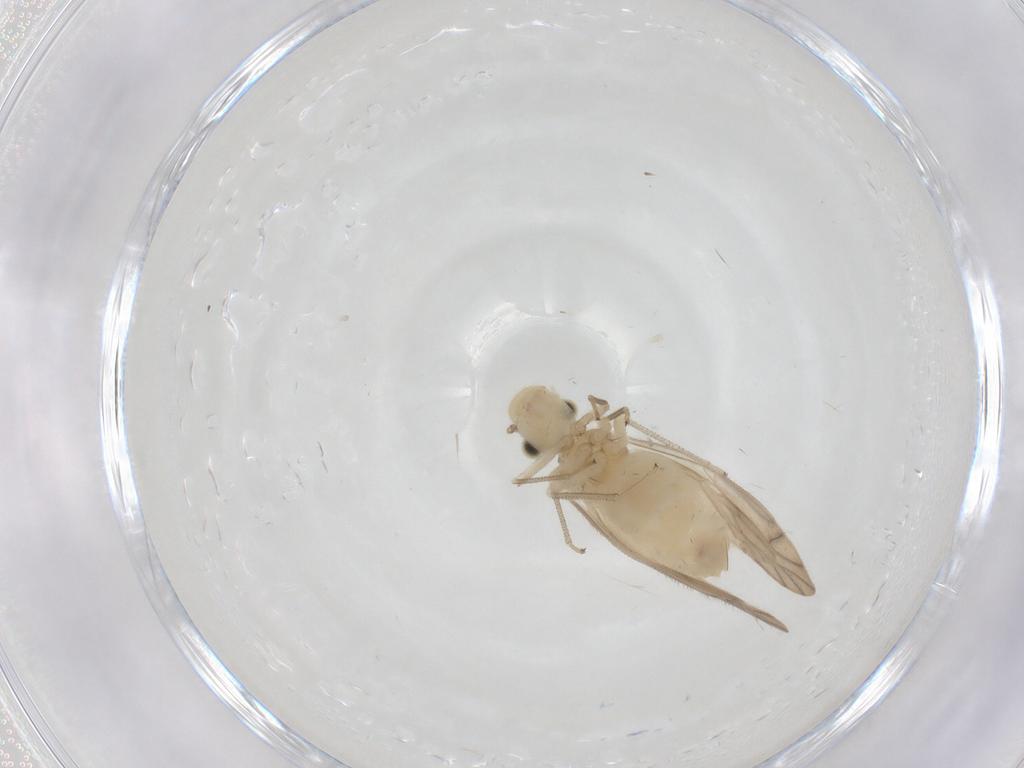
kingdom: Animalia
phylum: Arthropoda
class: Insecta
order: Psocodea
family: Caeciliusidae
